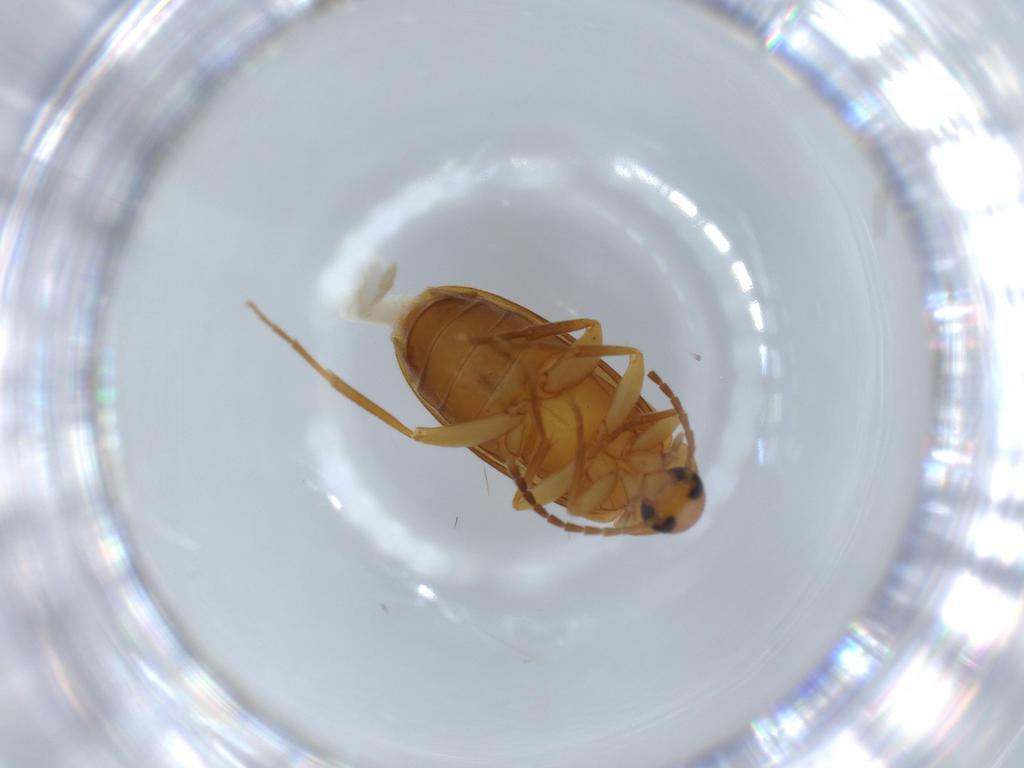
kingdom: Animalia
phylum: Arthropoda
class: Insecta
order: Coleoptera
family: Scraptiidae
